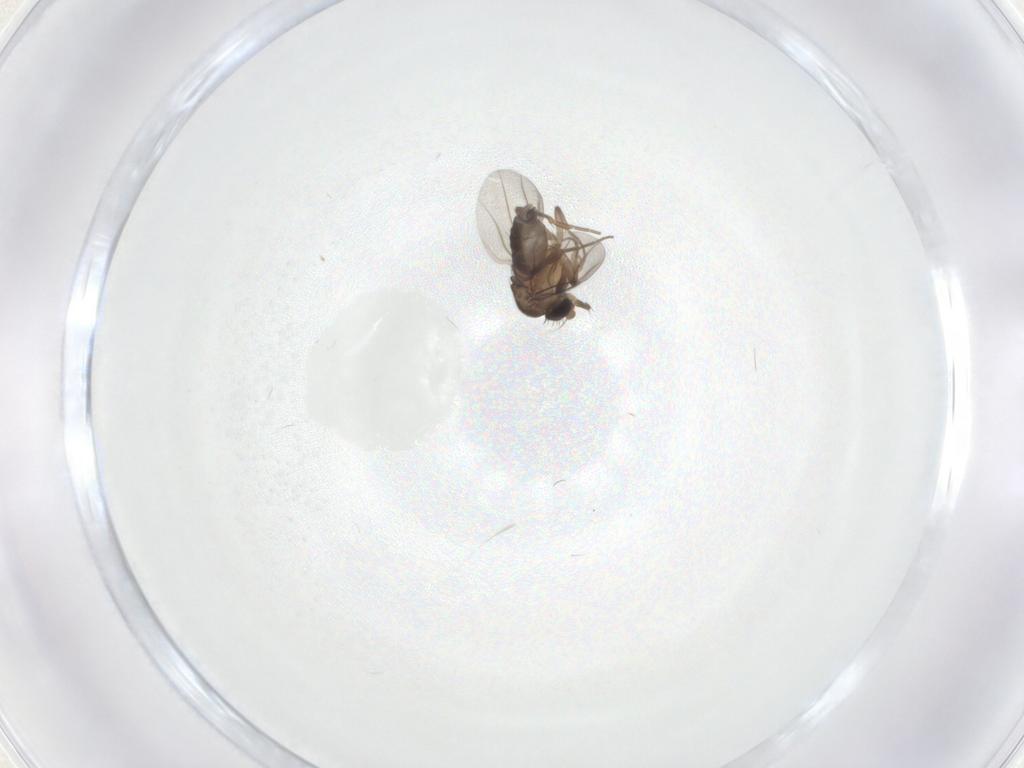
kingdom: Animalia
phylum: Arthropoda
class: Insecta
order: Diptera
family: Phoridae
